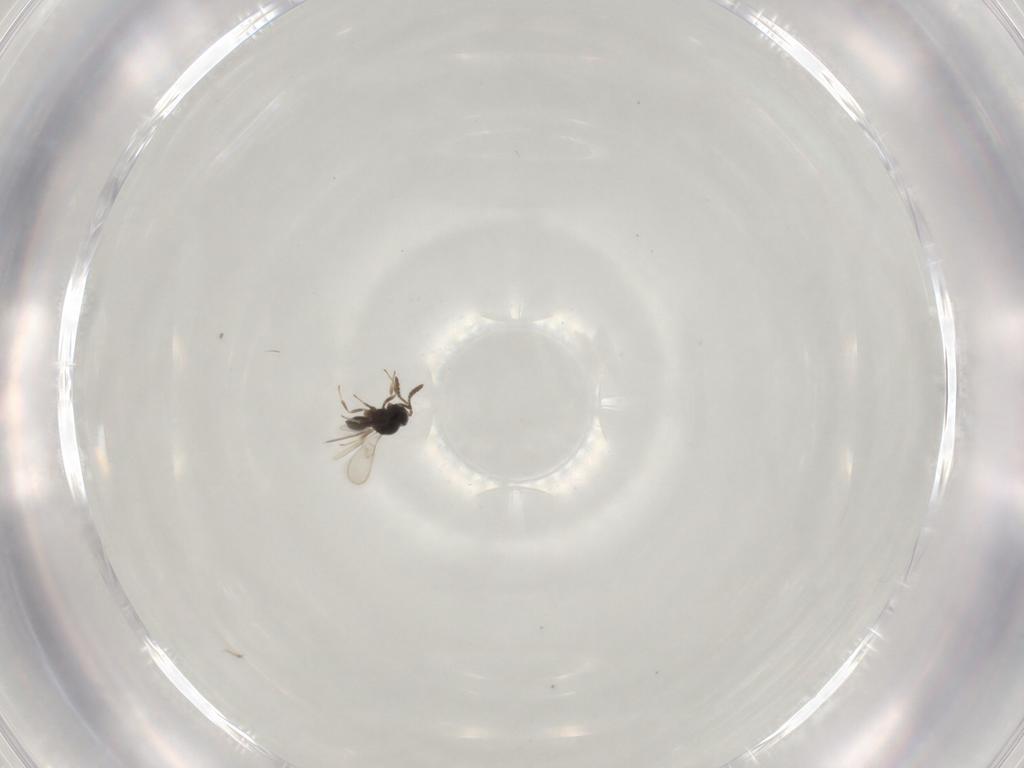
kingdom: Animalia
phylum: Arthropoda
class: Insecta
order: Hymenoptera
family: Scelionidae
